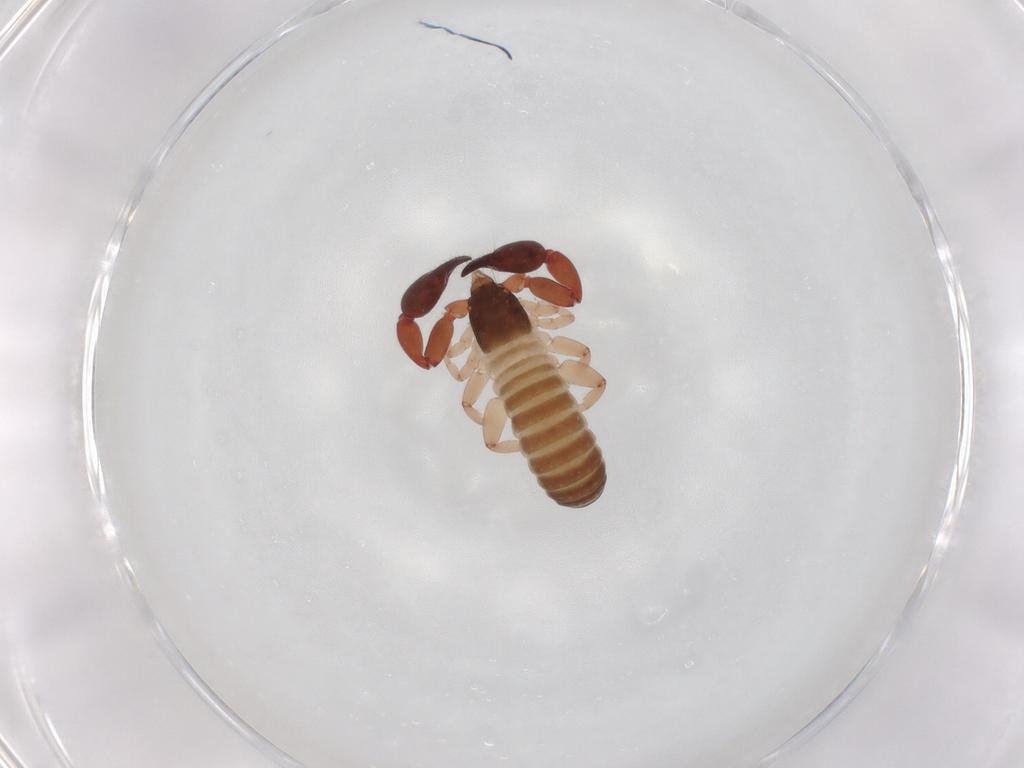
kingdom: Animalia
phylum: Arthropoda
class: Arachnida
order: Pseudoscorpiones
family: Olpiidae
